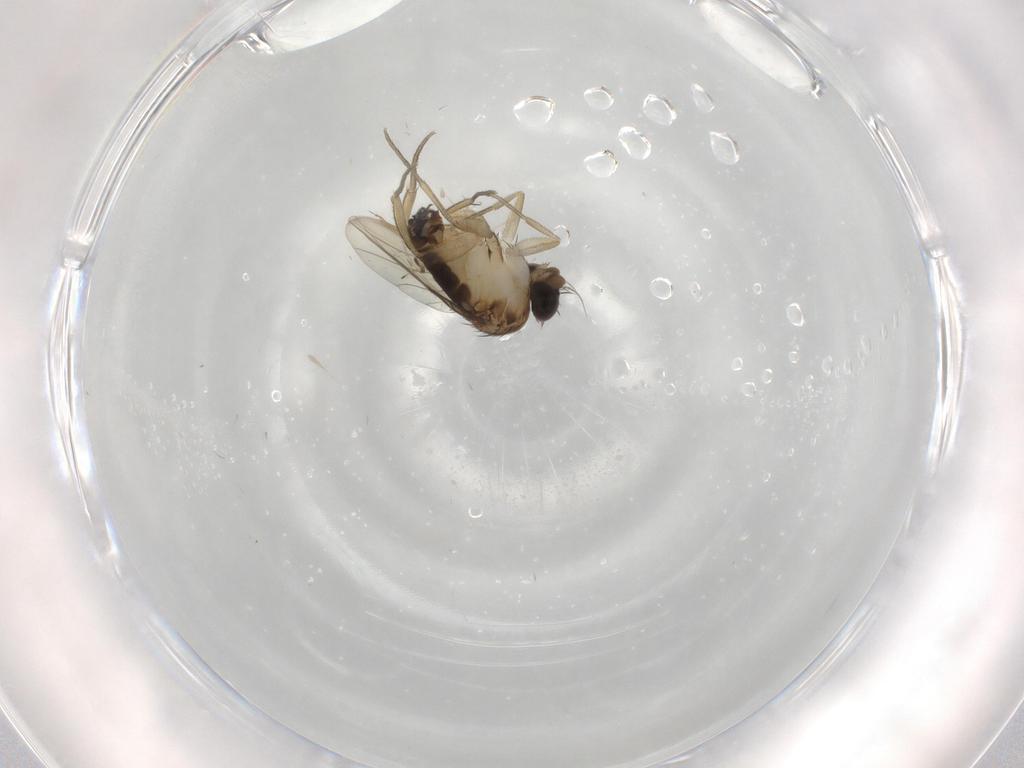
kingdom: Animalia
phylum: Arthropoda
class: Insecta
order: Diptera
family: Phoridae
